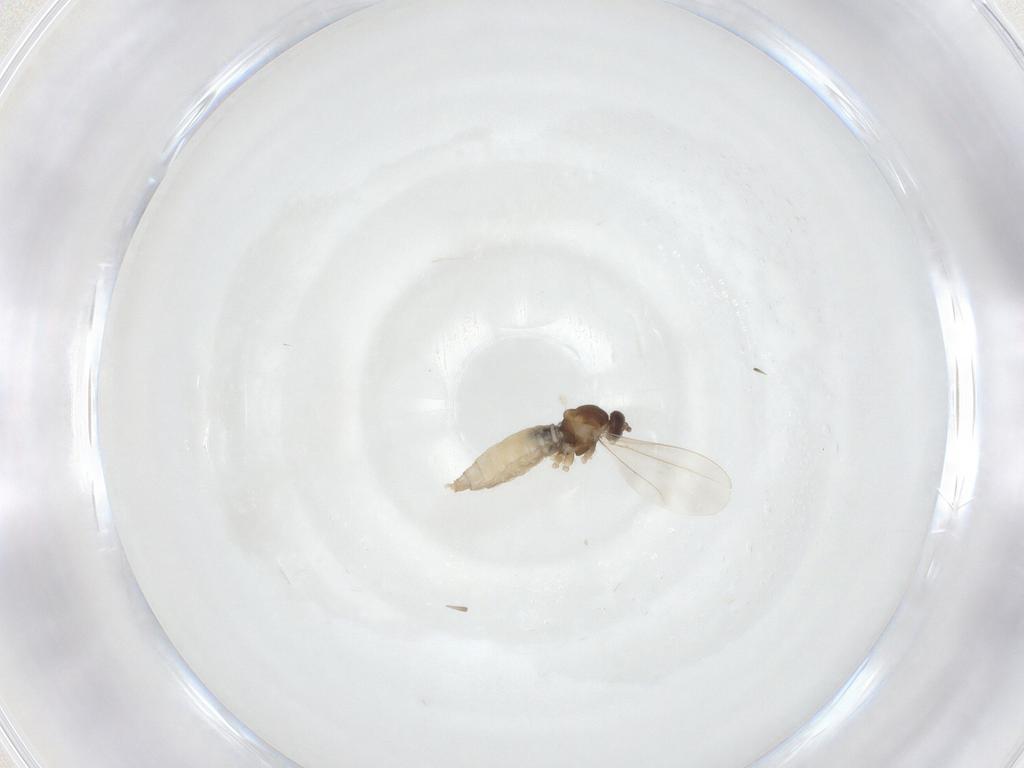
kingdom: Animalia
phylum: Arthropoda
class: Insecta
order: Diptera
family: Cecidomyiidae
